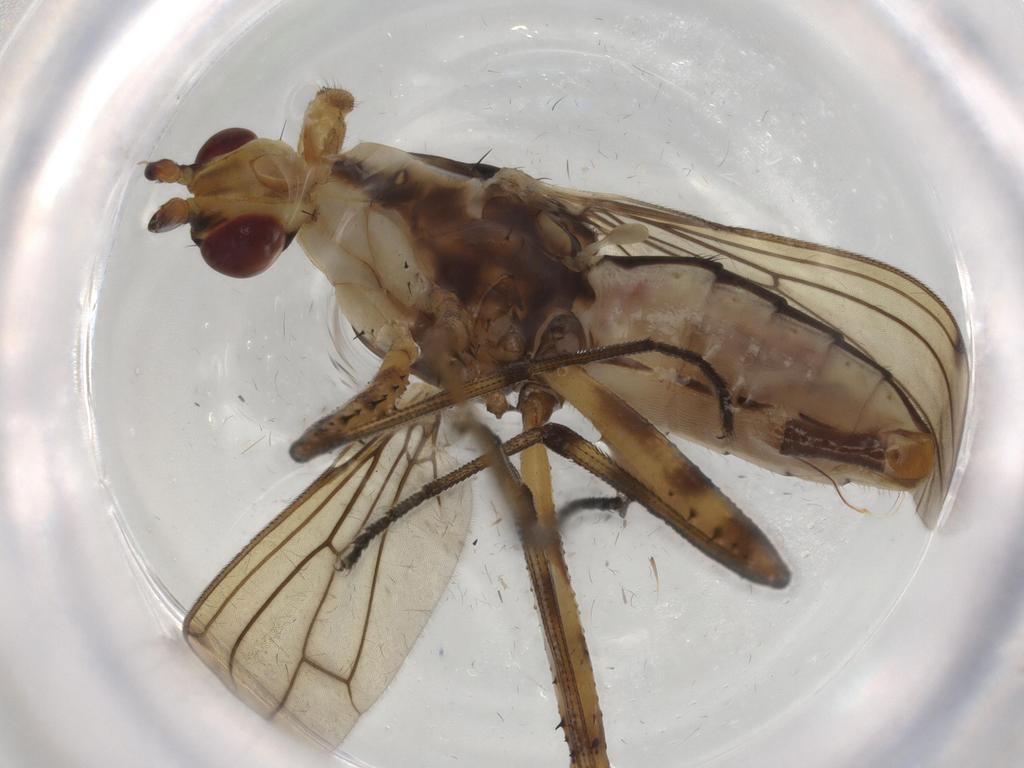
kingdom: Animalia
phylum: Arthropoda
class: Insecta
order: Diptera
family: Neriidae
